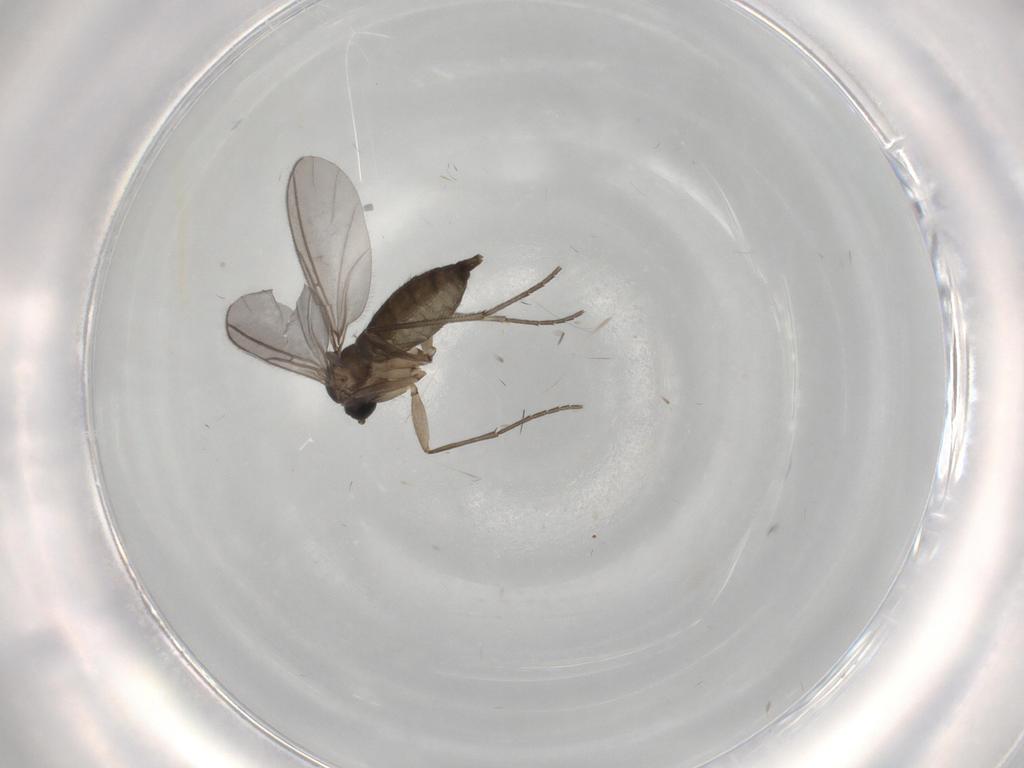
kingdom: Animalia
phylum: Arthropoda
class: Insecta
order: Diptera
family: Sciaridae
